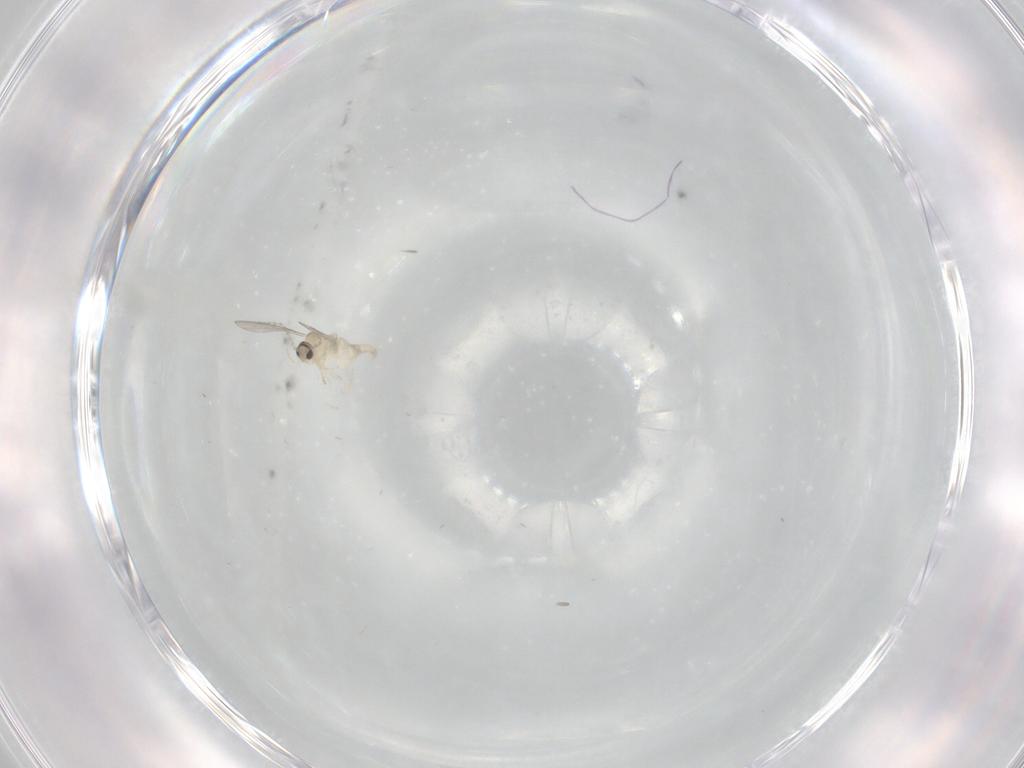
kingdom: Animalia
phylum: Arthropoda
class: Insecta
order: Diptera
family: Cecidomyiidae
